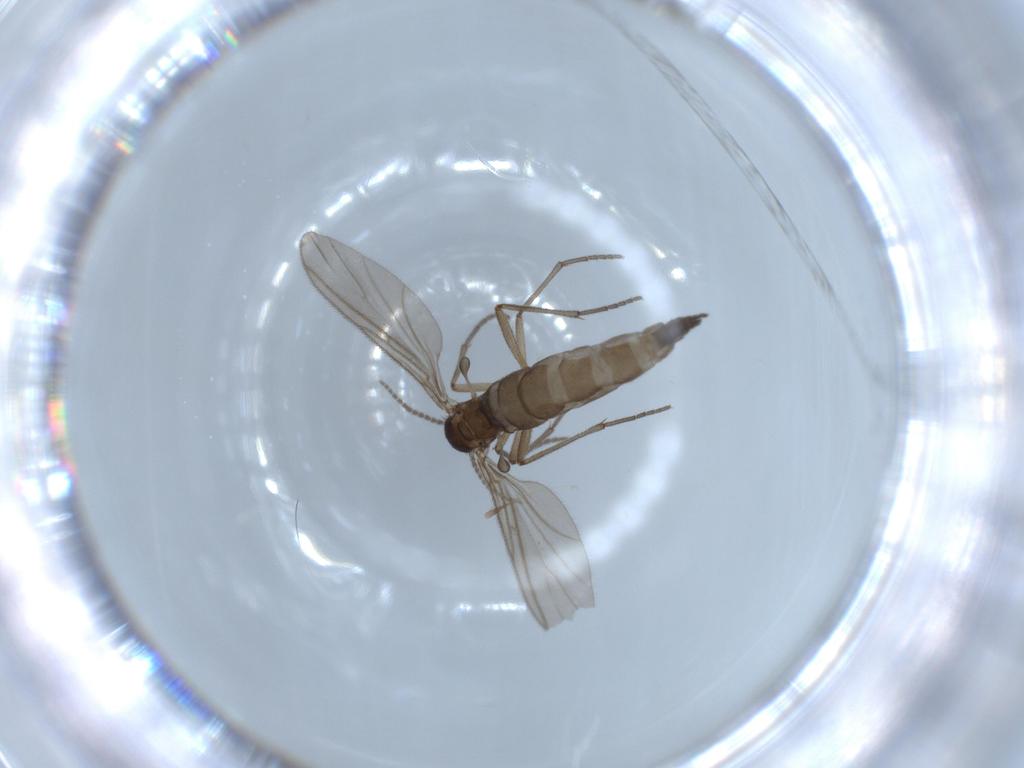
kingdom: Animalia
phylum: Arthropoda
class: Insecta
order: Diptera
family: Sciaridae
